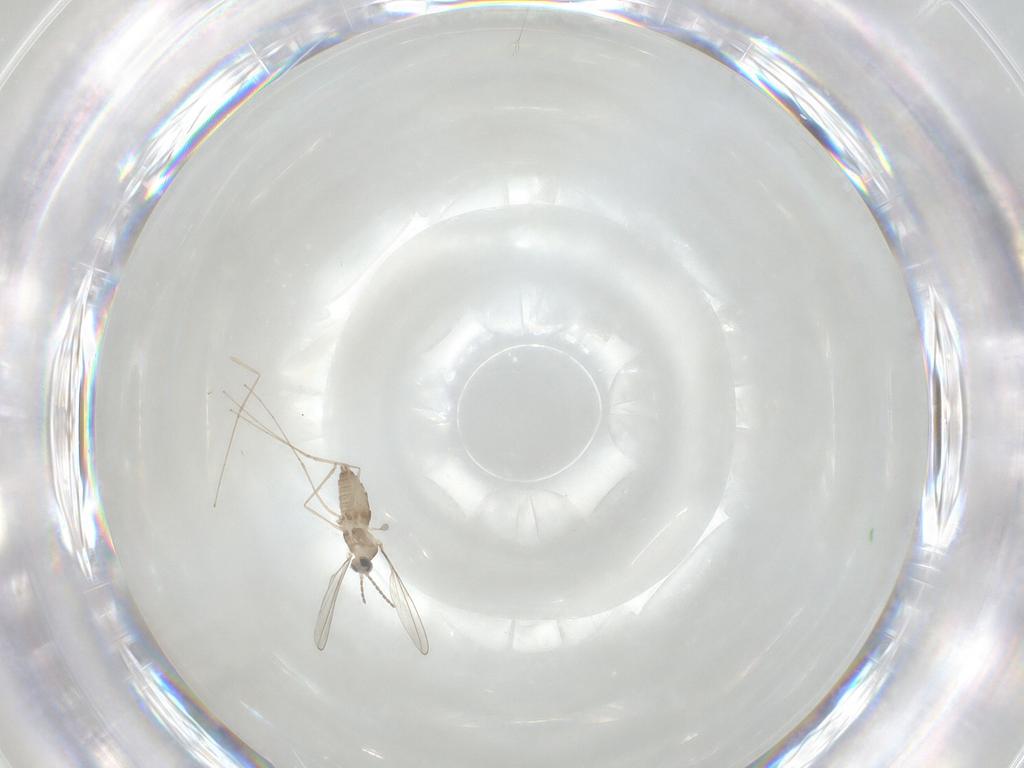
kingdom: Animalia
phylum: Arthropoda
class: Insecta
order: Diptera
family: Cecidomyiidae
